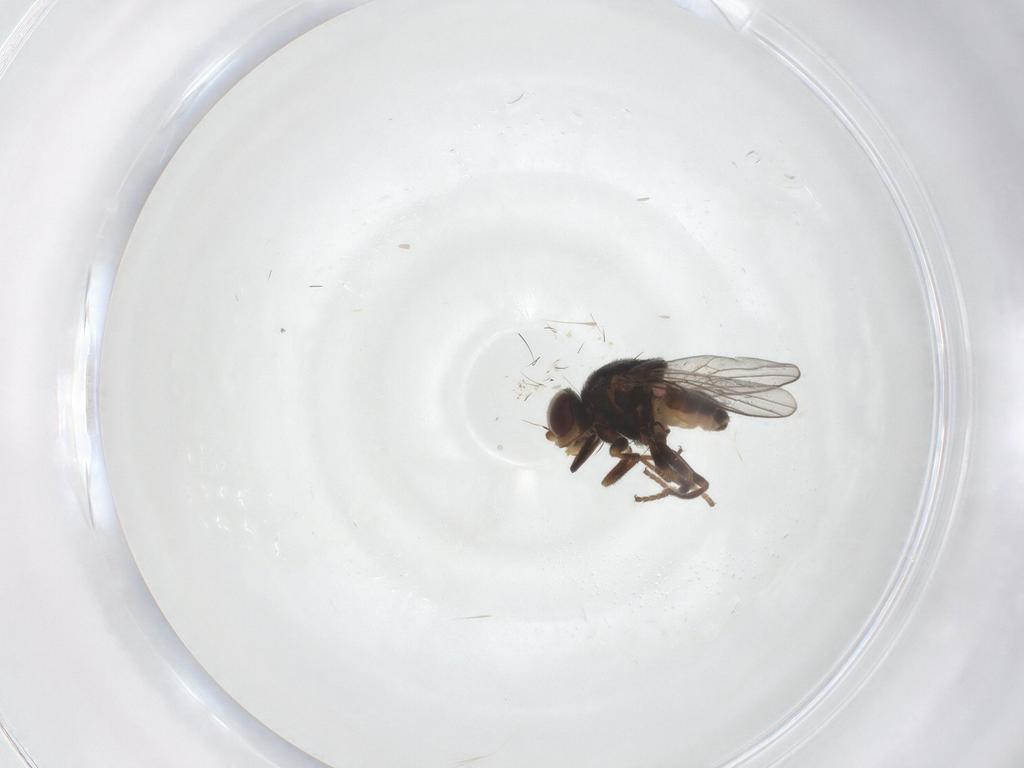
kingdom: Animalia
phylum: Arthropoda
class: Insecta
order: Diptera
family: Chloropidae
